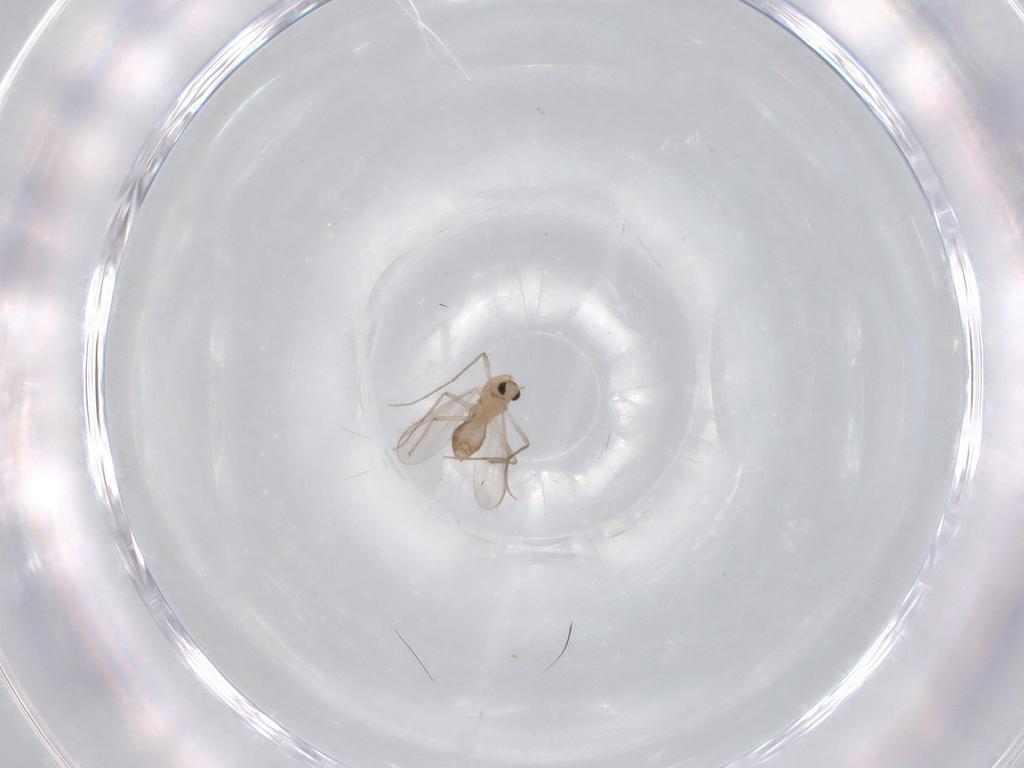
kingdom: Animalia
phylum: Arthropoda
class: Insecta
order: Diptera
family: Chironomidae
